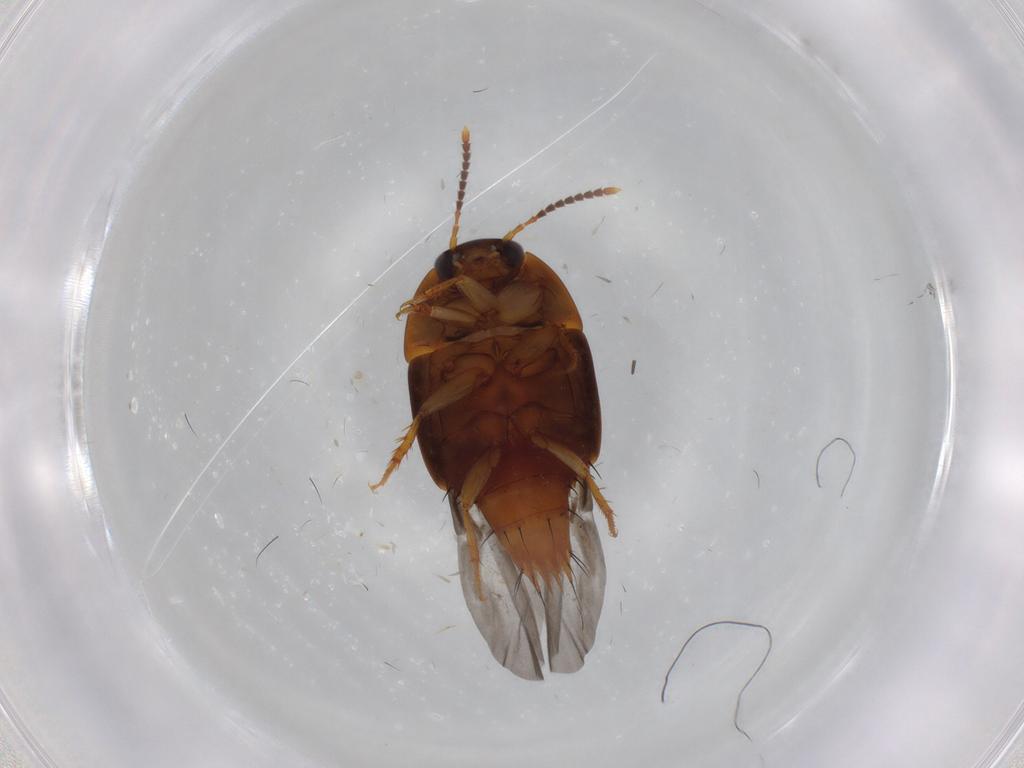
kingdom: Animalia
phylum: Arthropoda
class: Insecta
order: Coleoptera
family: Staphylinidae
